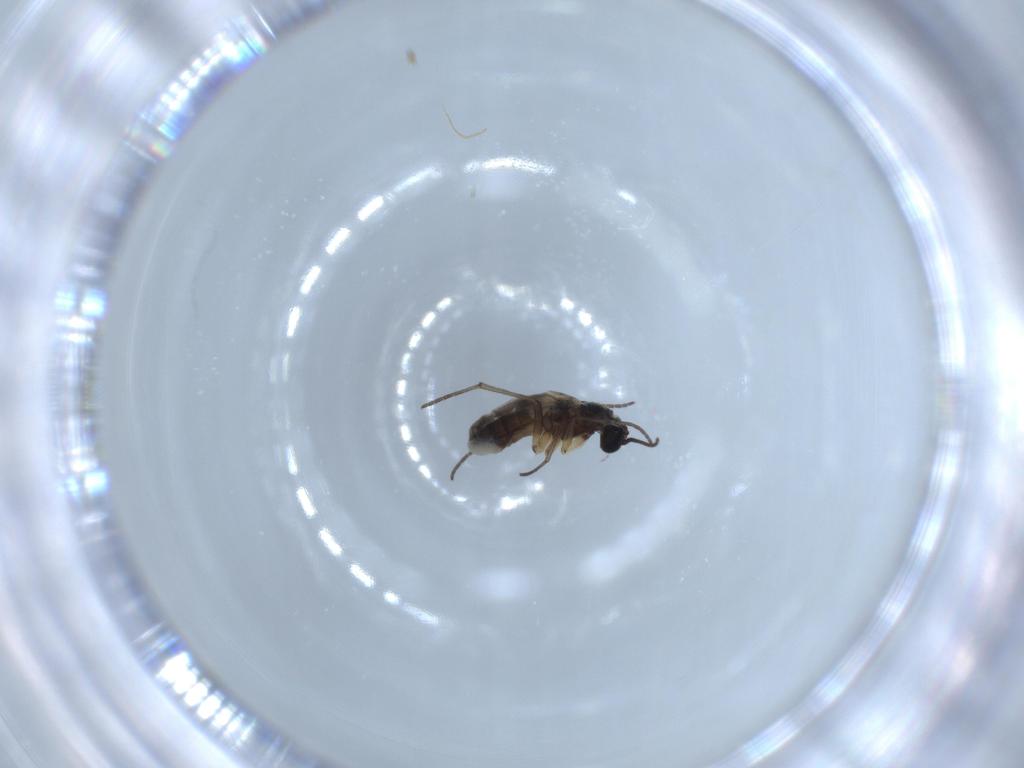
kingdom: Animalia
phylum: Arthropoda
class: Insecta
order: Diptera
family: Sciaridae
